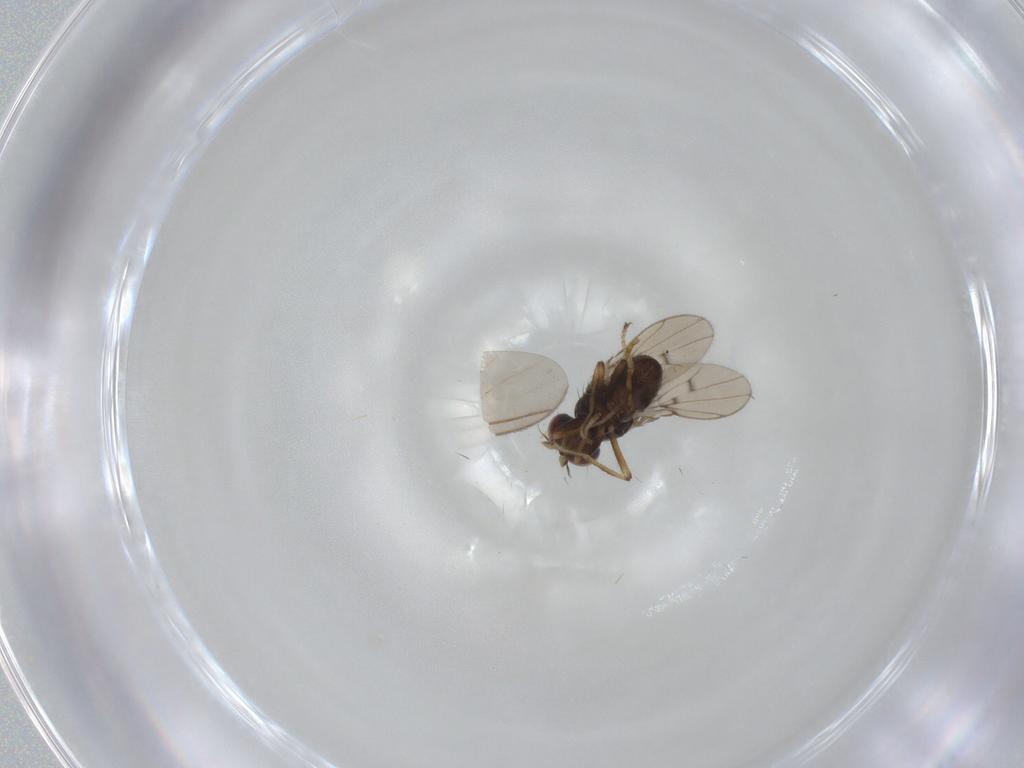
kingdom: Animalia
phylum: Arthropoda
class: Insecta
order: Diptera
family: Ephydridae
